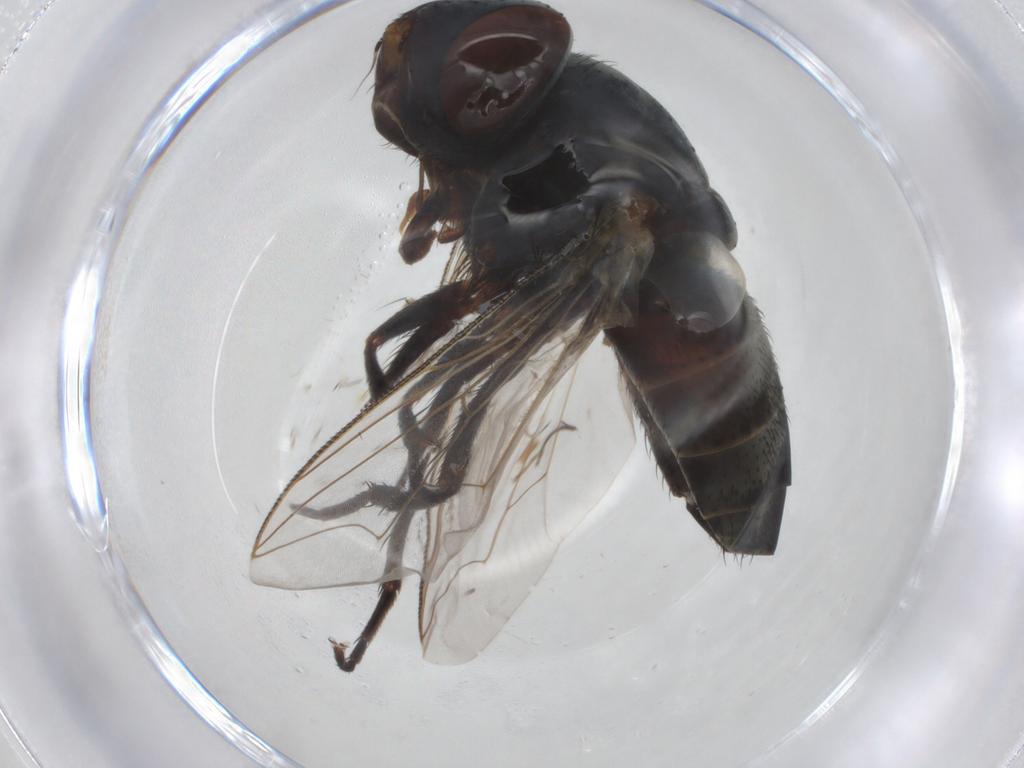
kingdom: Animalia
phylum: Arthropoda
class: Insecta
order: Diptera
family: Sarcophagidae
